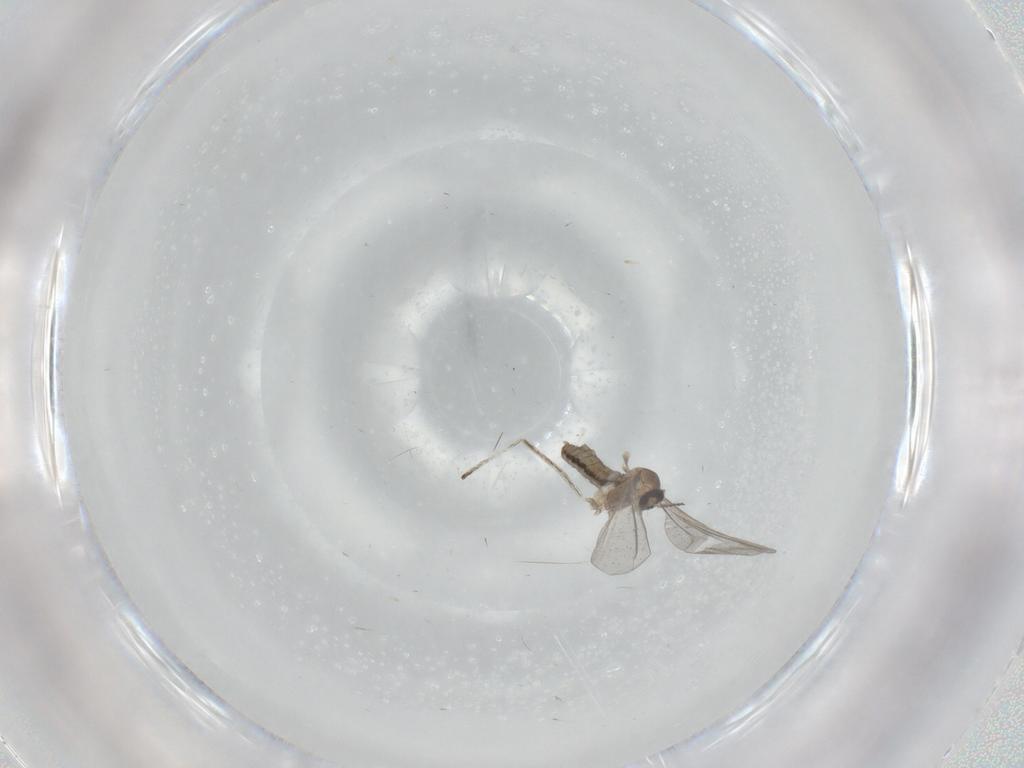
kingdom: Animalia
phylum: Arthropoda
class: Insecta
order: Diptera
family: Cecidomyiidae
